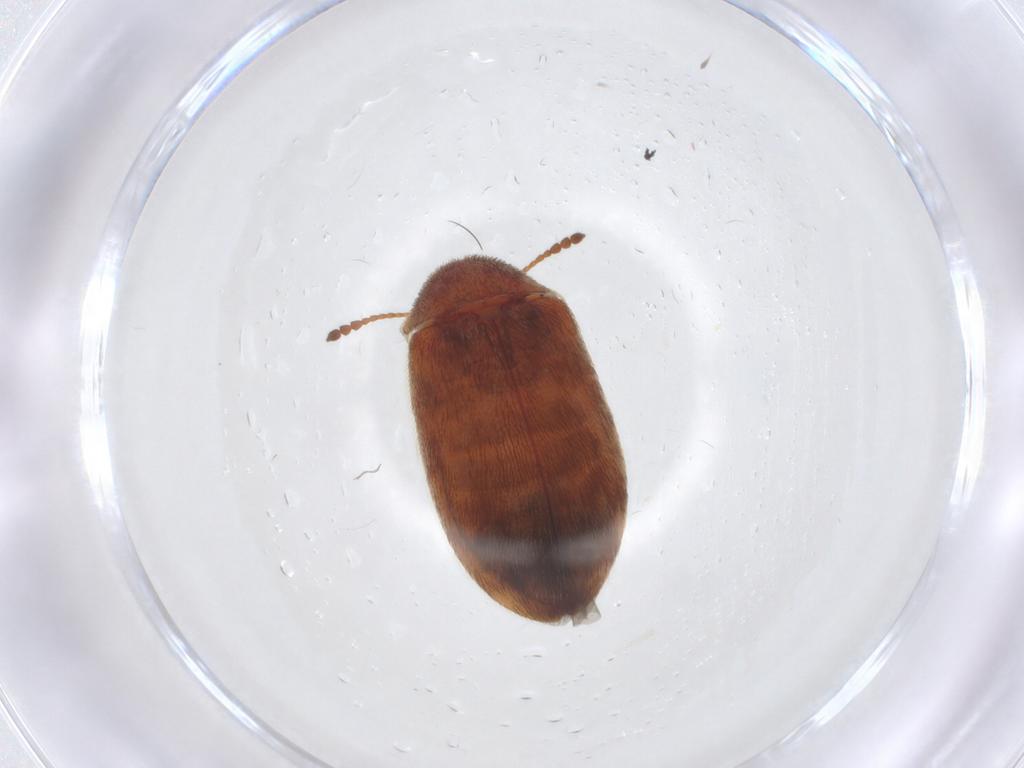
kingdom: Animalia
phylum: Arthropoda
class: Insecta
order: Coleoptera
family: Byturidae
